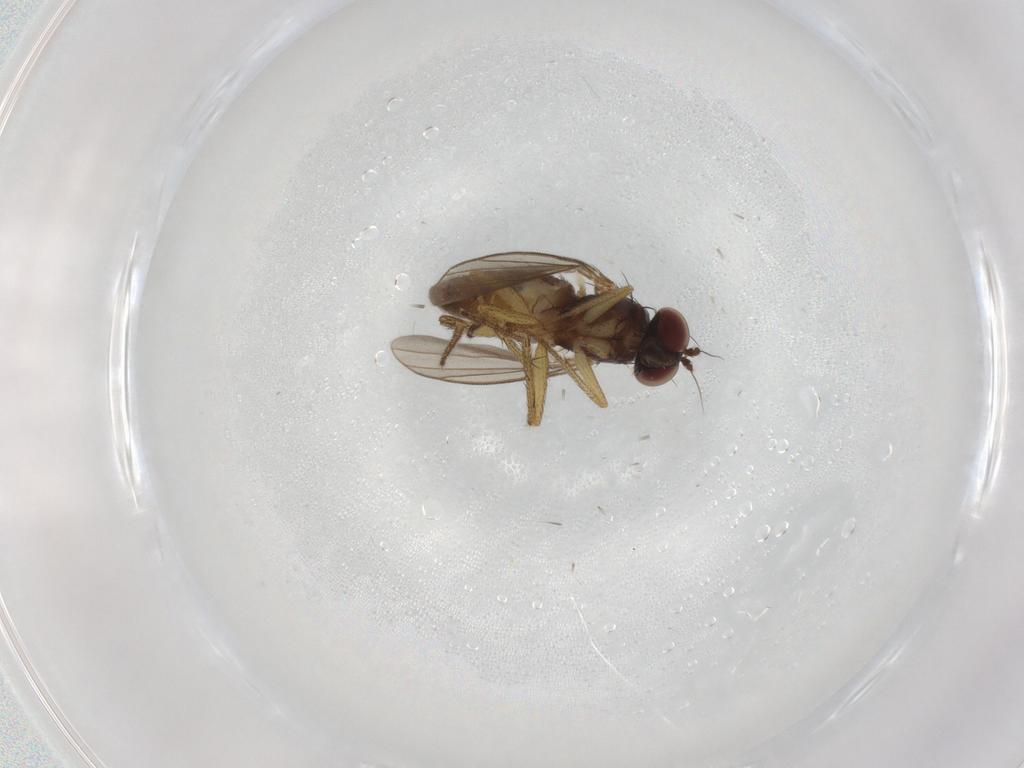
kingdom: Animalia
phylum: Arthropoda
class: Insecta
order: Diptera
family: Dolichopodidae
